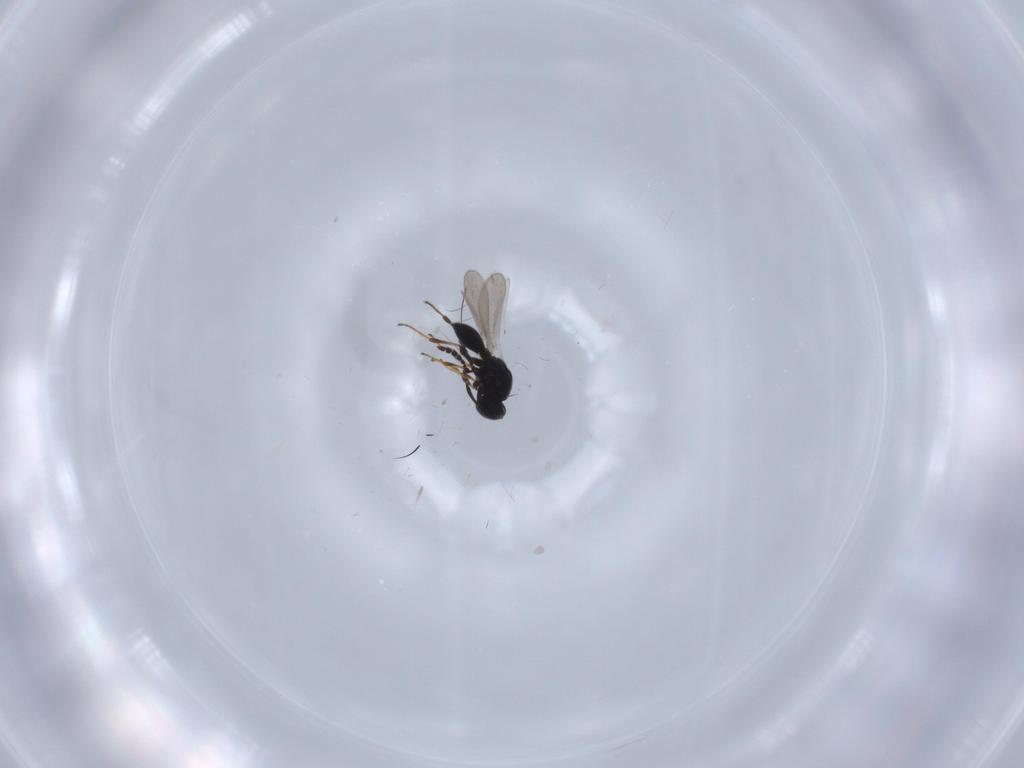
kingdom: Animalia
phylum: Arthropoda
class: Insecta
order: Hymenoptera
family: Platygastridae
